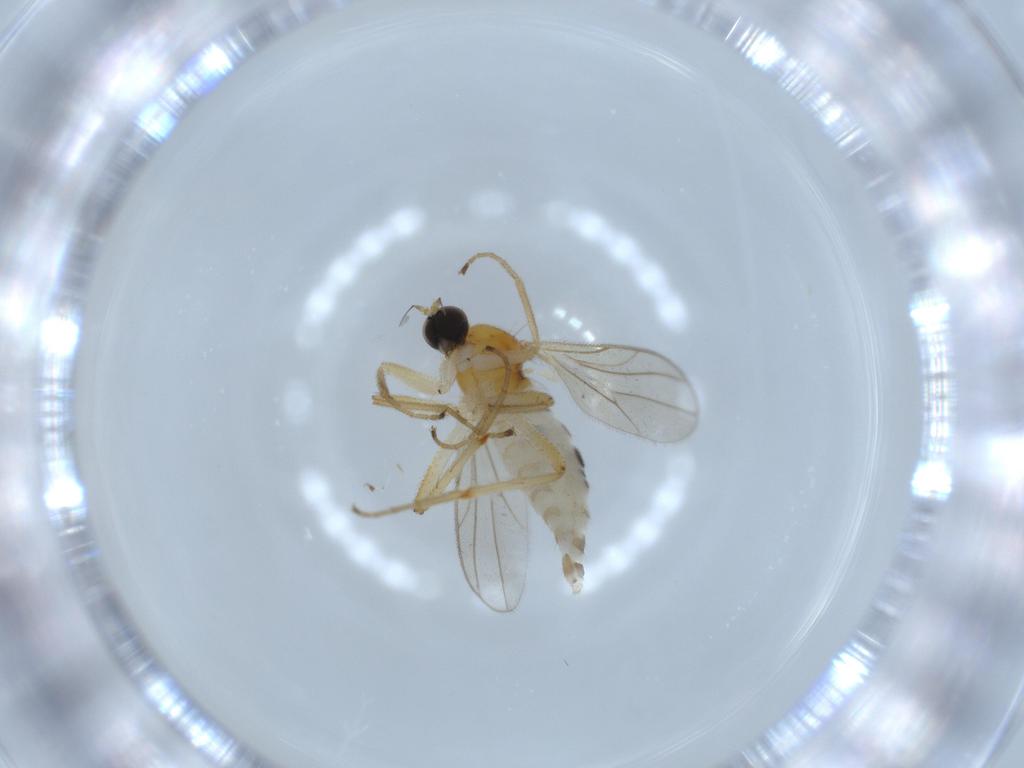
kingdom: Animalia
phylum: Arthropoda
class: Insecta
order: Diptera
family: Hybotidae
